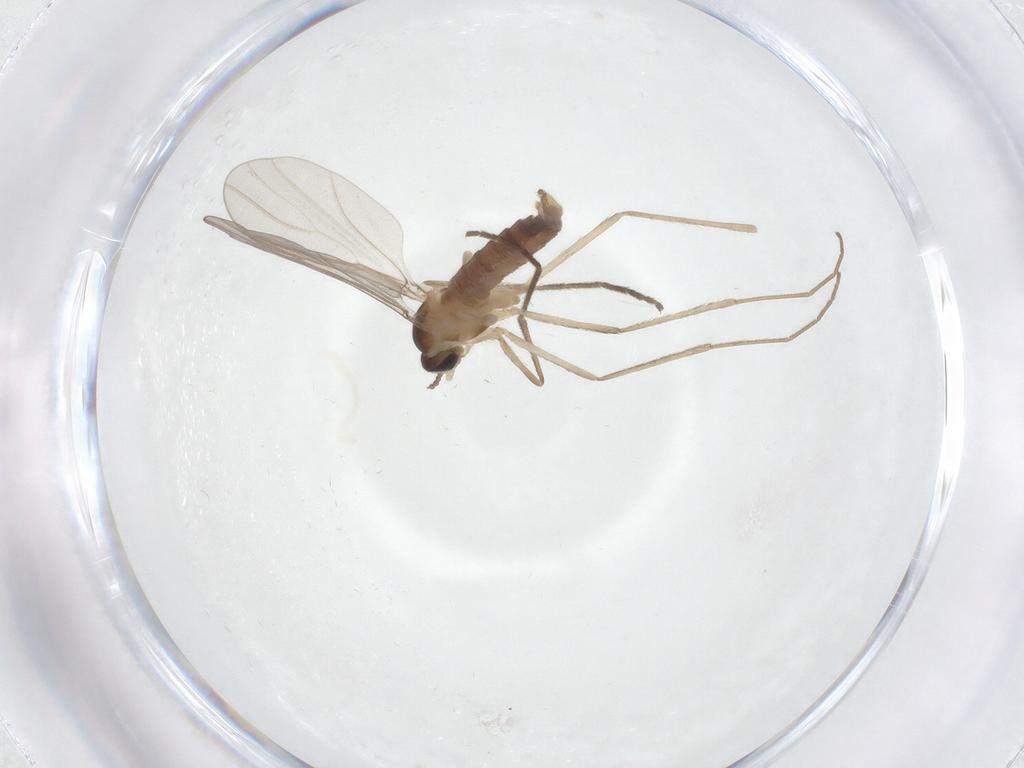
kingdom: Animalia
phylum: Arthropoda
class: Insecta
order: Diptera
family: Cecidomyiidae
